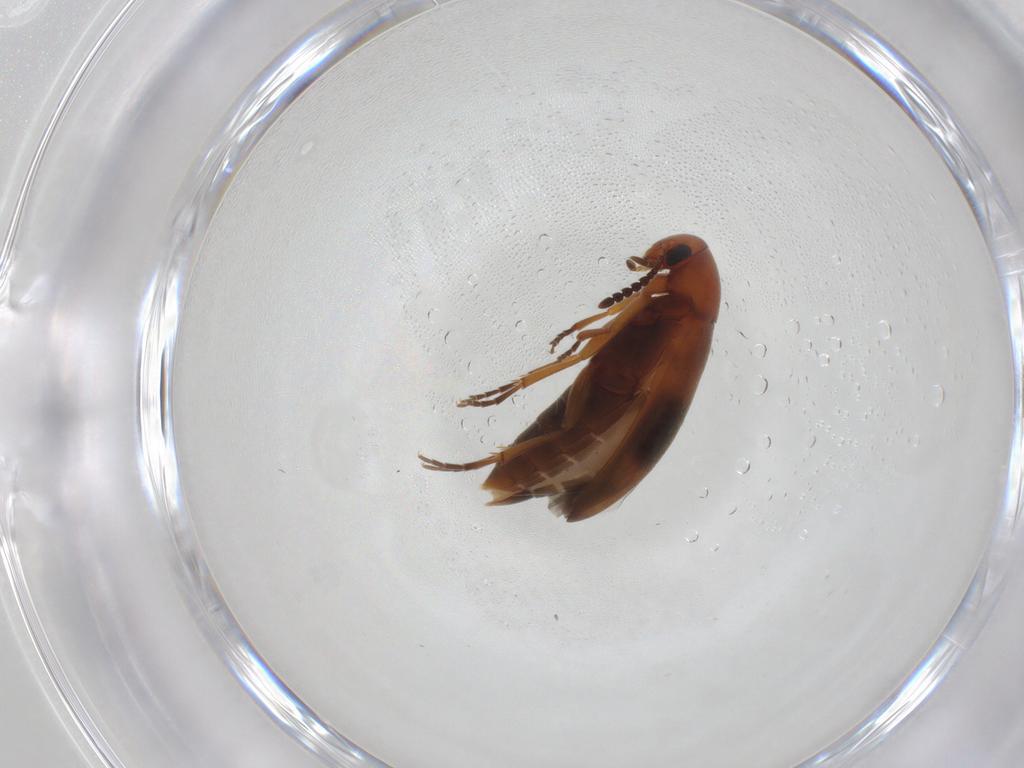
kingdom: Animalia
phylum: Arthropoda
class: Insecta
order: Coleoptera
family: Scraptiidae
